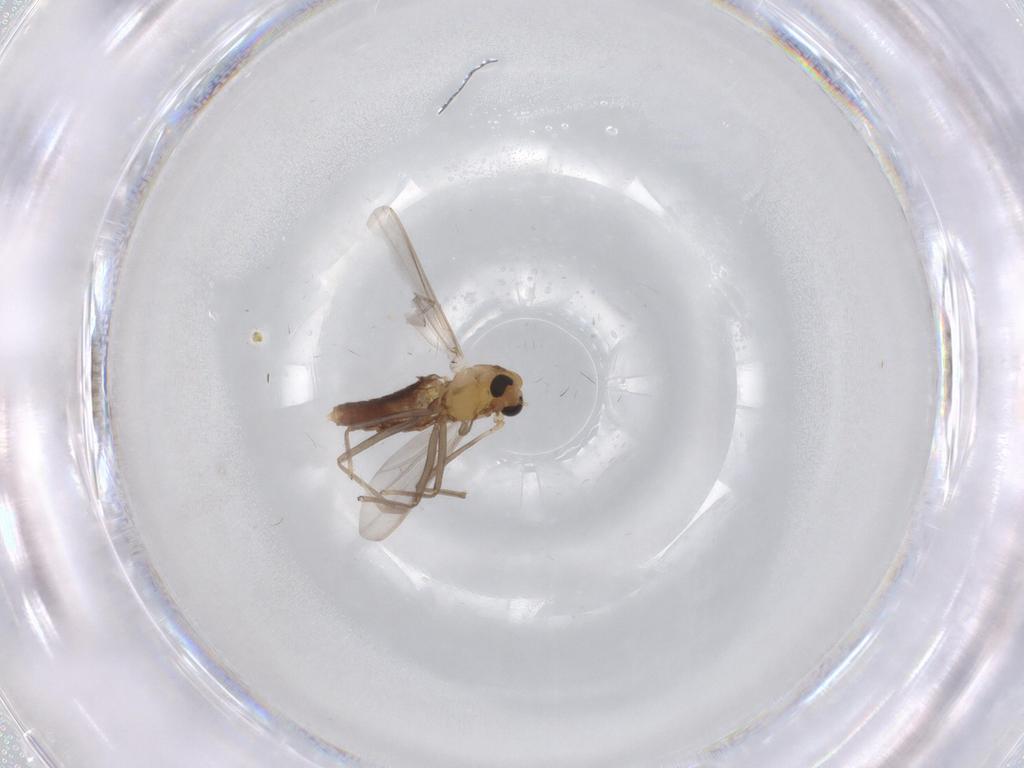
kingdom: Animalia
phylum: Arthropoda
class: Insecta
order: Diptera
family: Chironomidae
